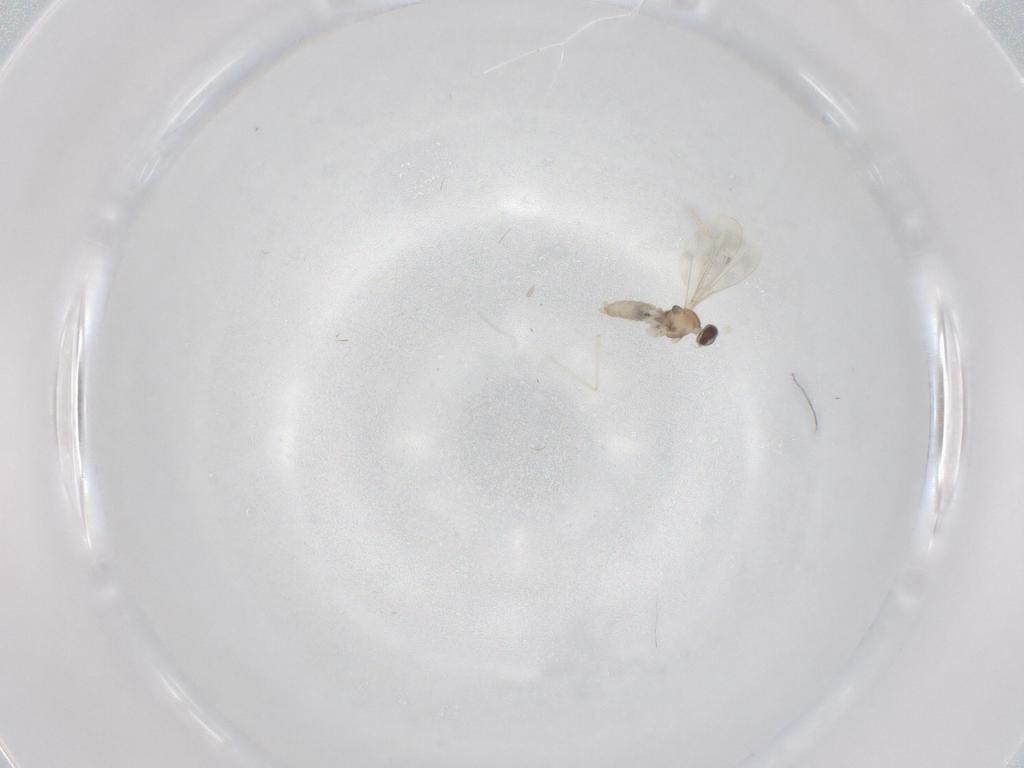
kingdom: Animalia
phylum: Arthropoda
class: Insecta
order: Diptera
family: Cecidomyiidae
